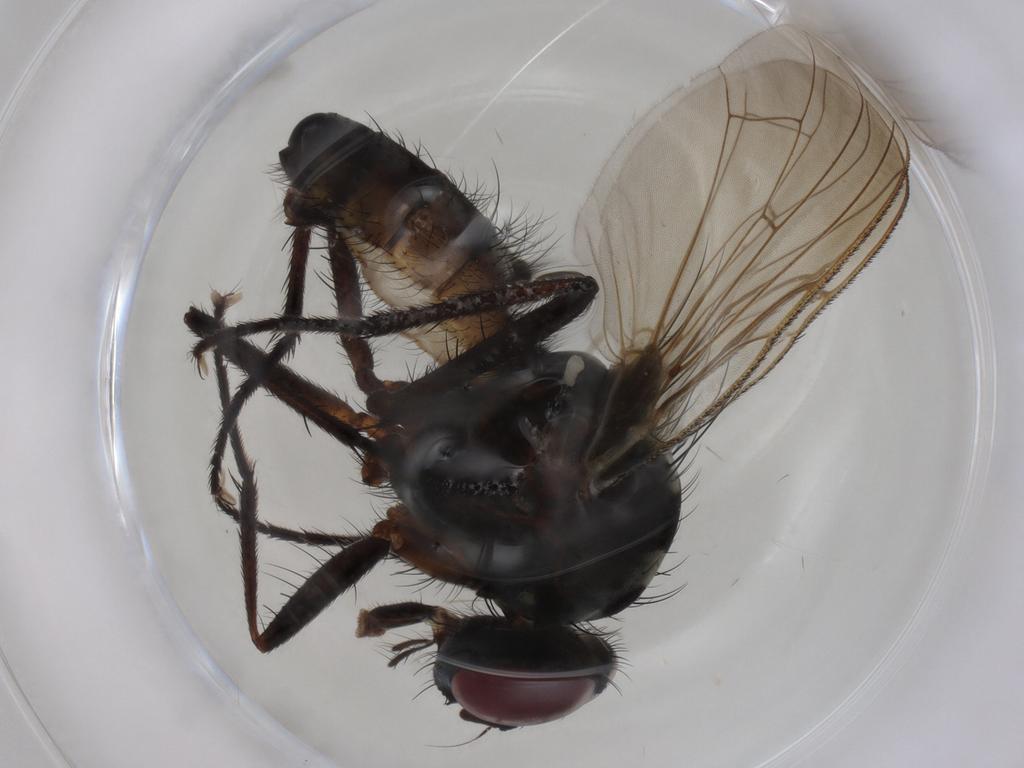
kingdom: Animalia
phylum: Arthropoda
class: Insecta
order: Diptera
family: Anthomyiidae
